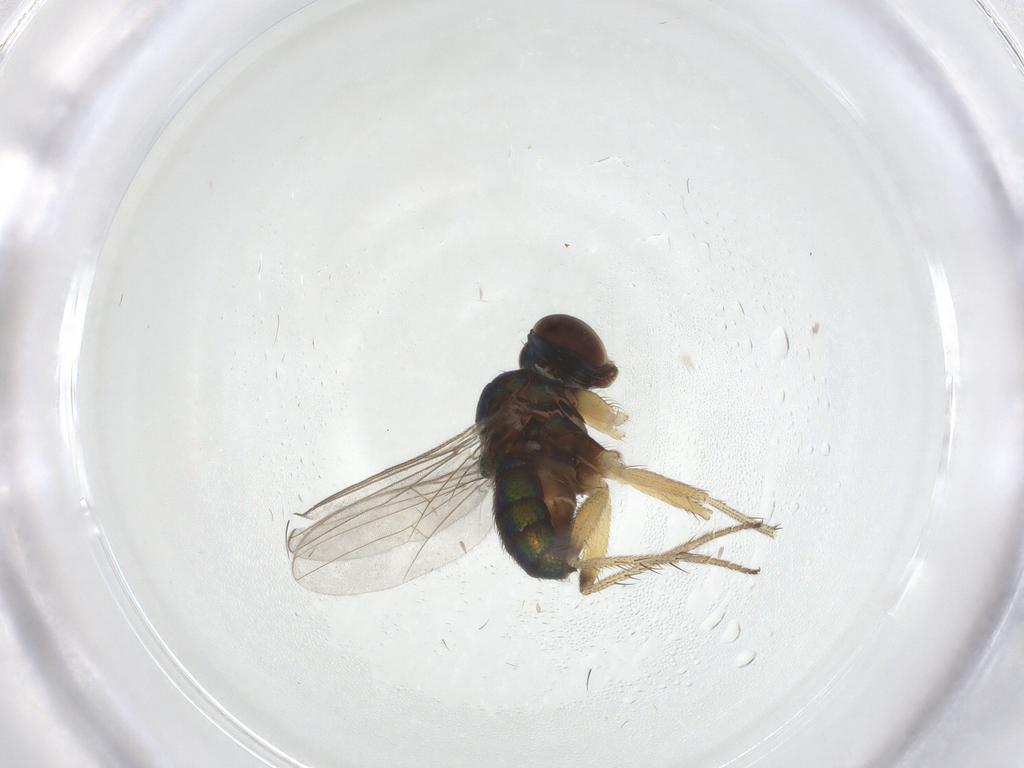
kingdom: Animalia
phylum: Arthropoda
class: Insecta
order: Diptera
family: Dolichopodidae
